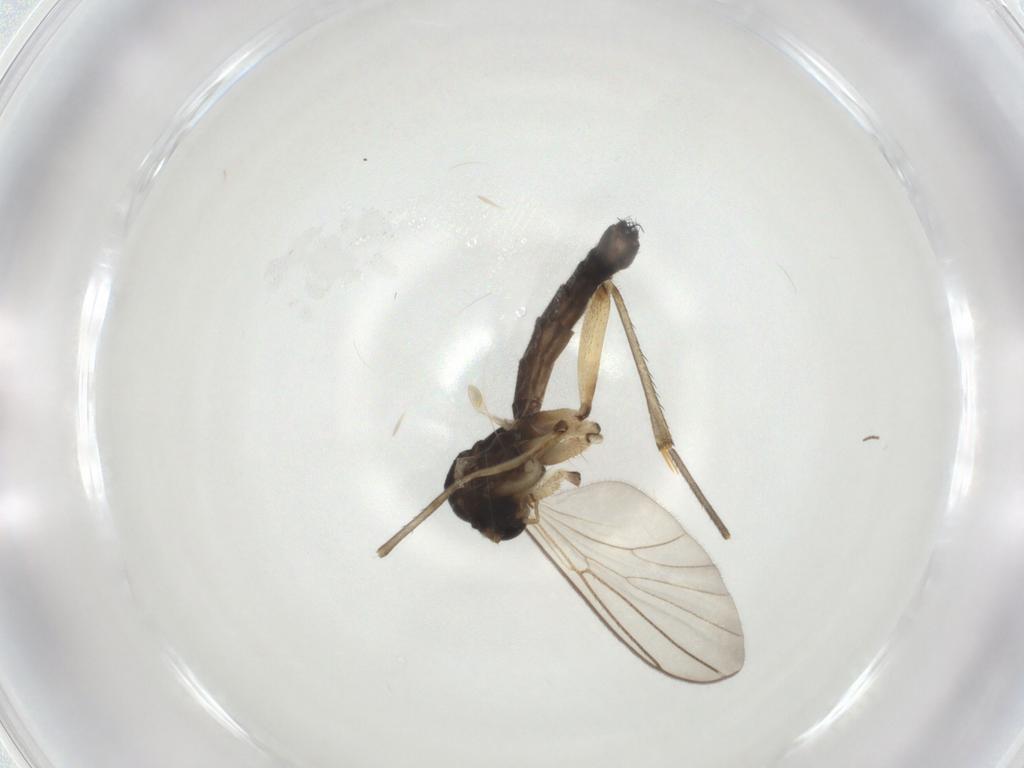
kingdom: Animalia
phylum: Arthropoda
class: Insecta
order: Diptera
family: Mycetophilidae
